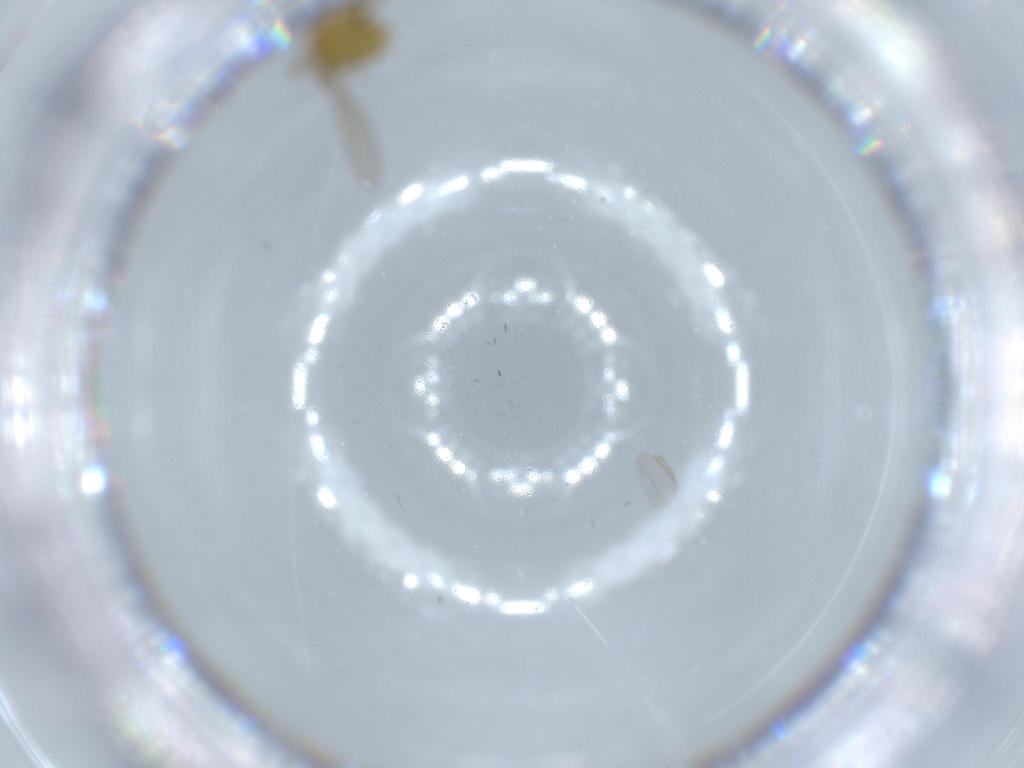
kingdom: Animalia
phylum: Arthropoda
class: Insecta
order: Diptera
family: Chironomidae
